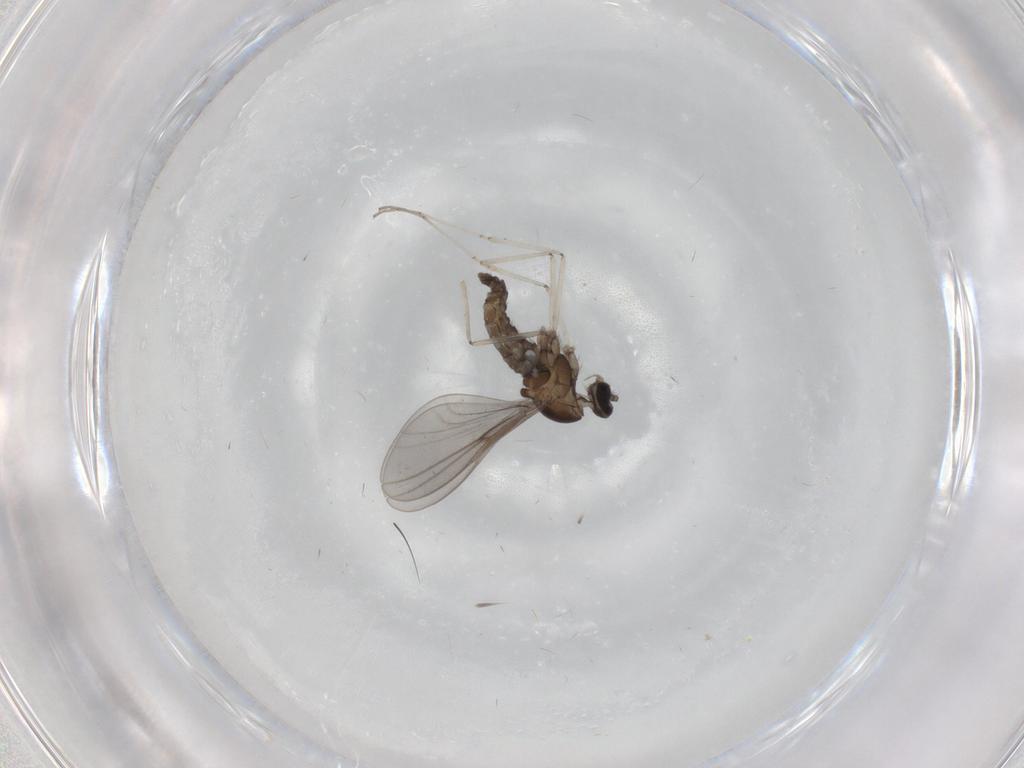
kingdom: Animalia
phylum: Arthropoda
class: Insecta
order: Diptera
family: Cecidomyiidae
